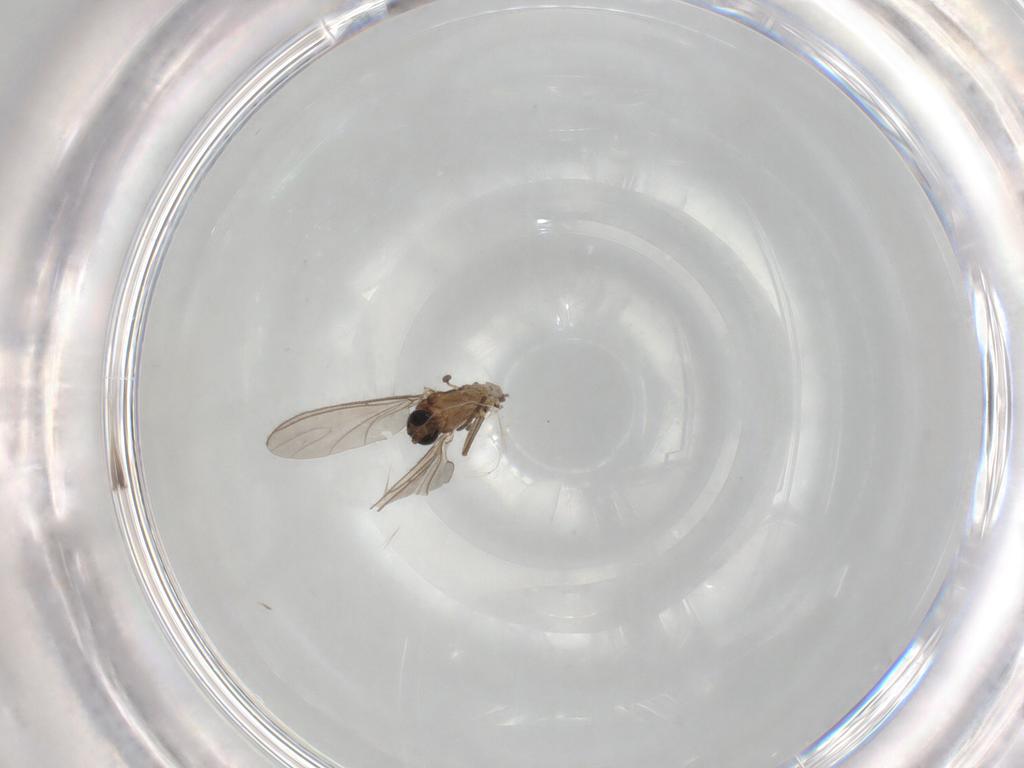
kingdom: Animalia
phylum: Arthropoda
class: Insecta
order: Diptera
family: Sciaridae
